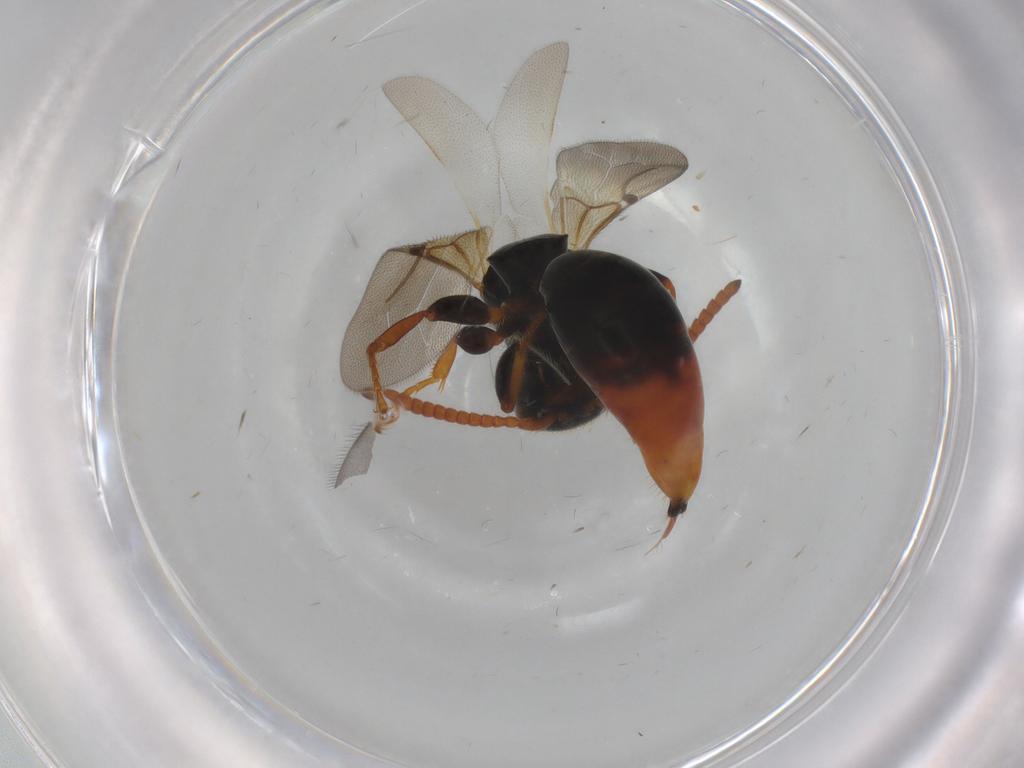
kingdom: Animalia
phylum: Arthropoda
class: Insecta
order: Hymenoptera
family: Bethylidae
